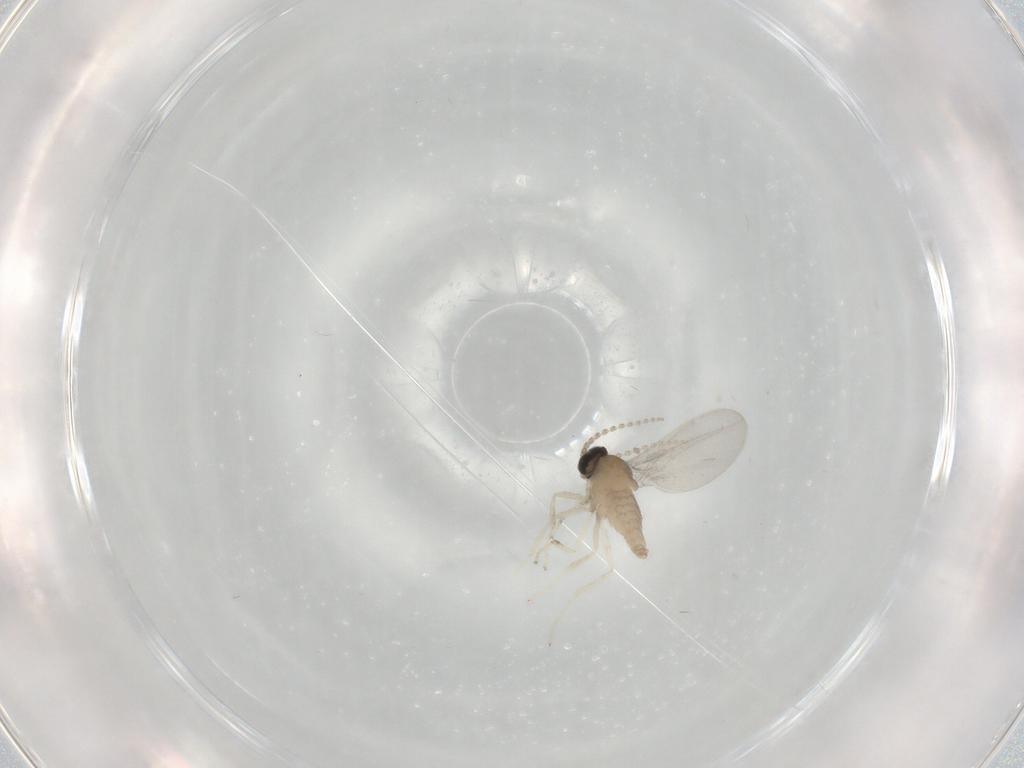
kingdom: Animalia
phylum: Arthropoda
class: Insecta
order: Diptera
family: Cecidomyiidae
